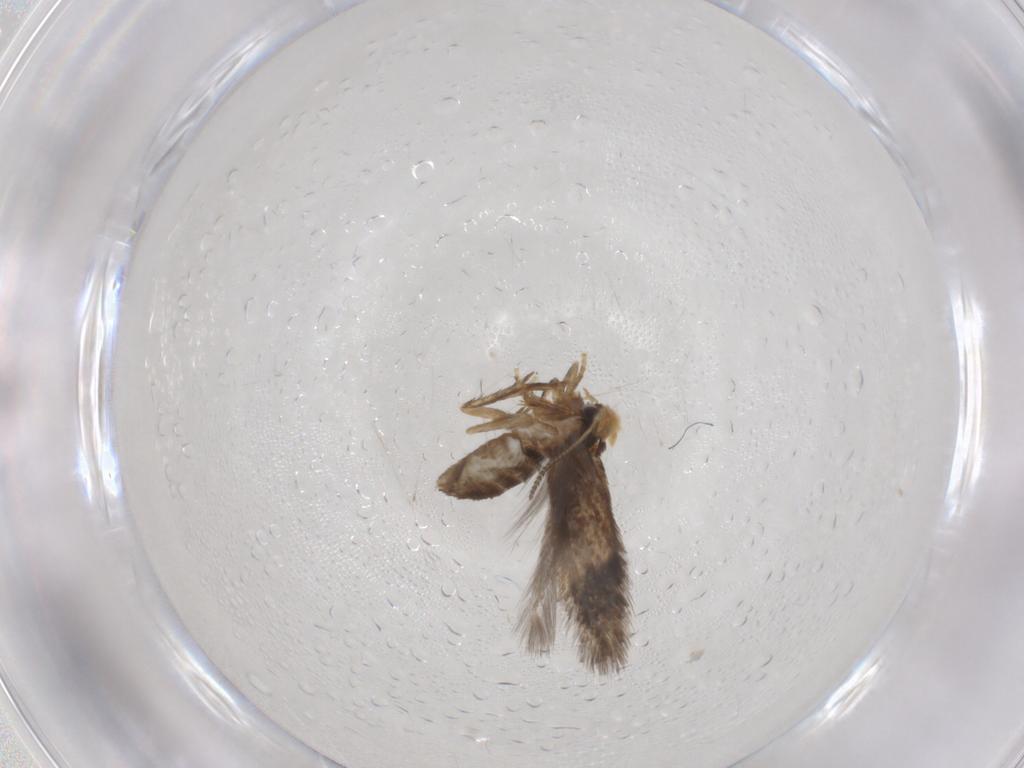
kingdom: Animalia
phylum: Arthropoda
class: Insecta
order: Lepidoptera
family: Nepticulidae
